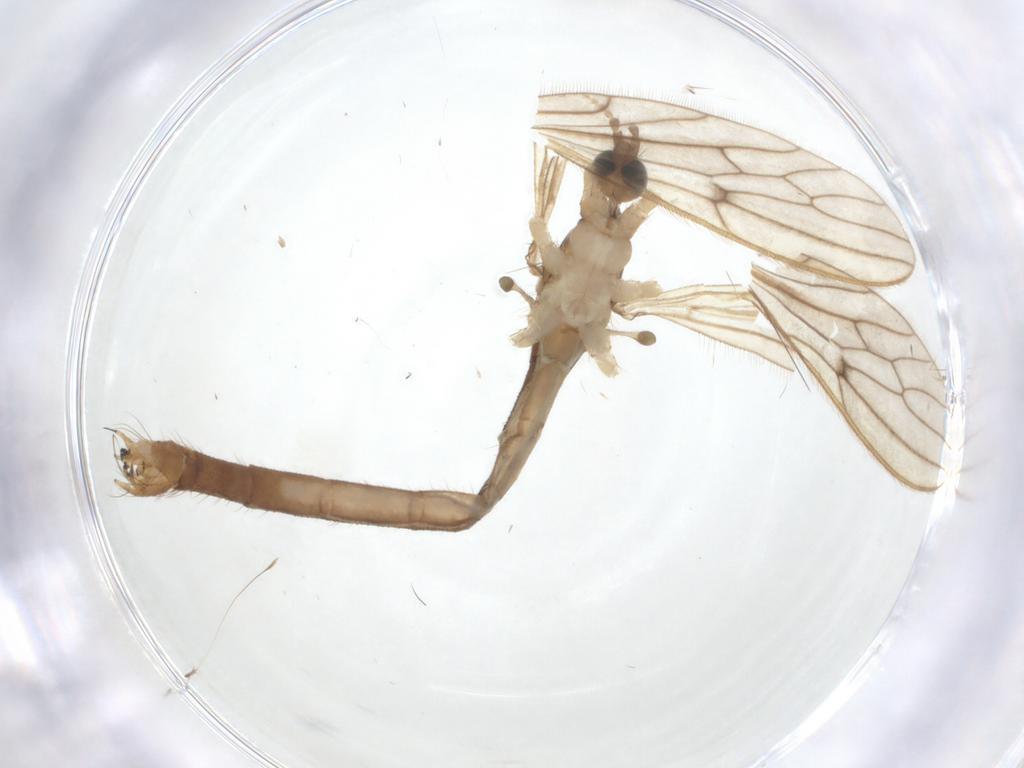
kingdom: Animalia
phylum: Arthropoda
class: Insecta
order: Diptera
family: Limoniidae
